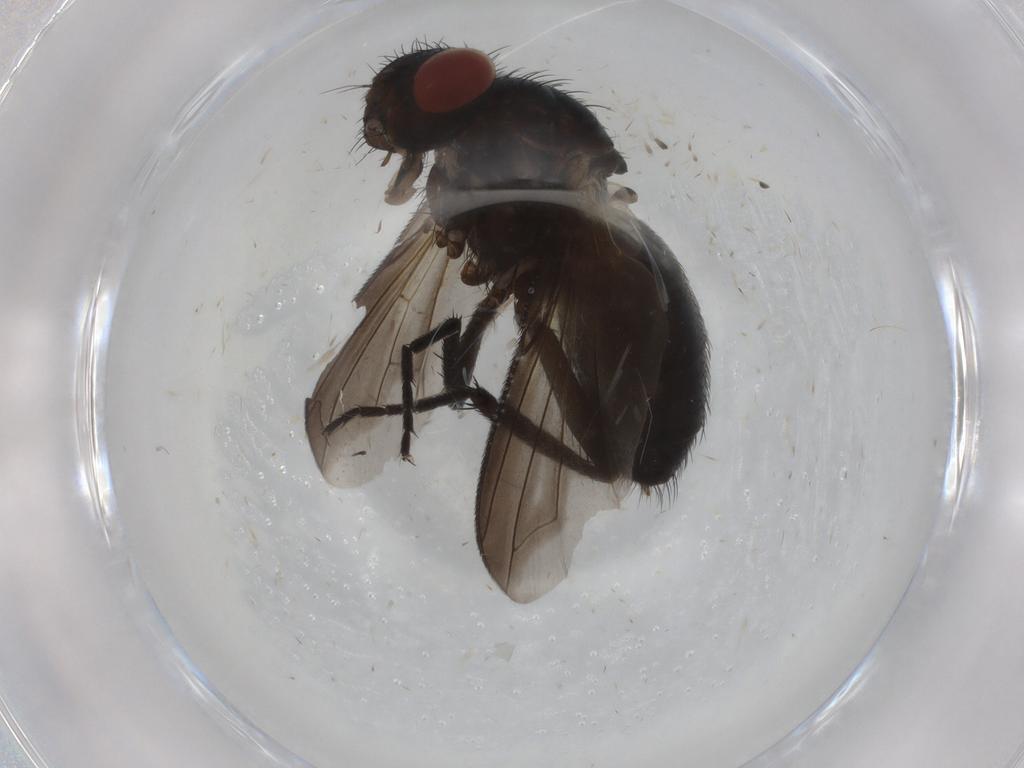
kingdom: Animalia
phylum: Arthropoda
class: Insecta
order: Diptera
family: Tachinidae
